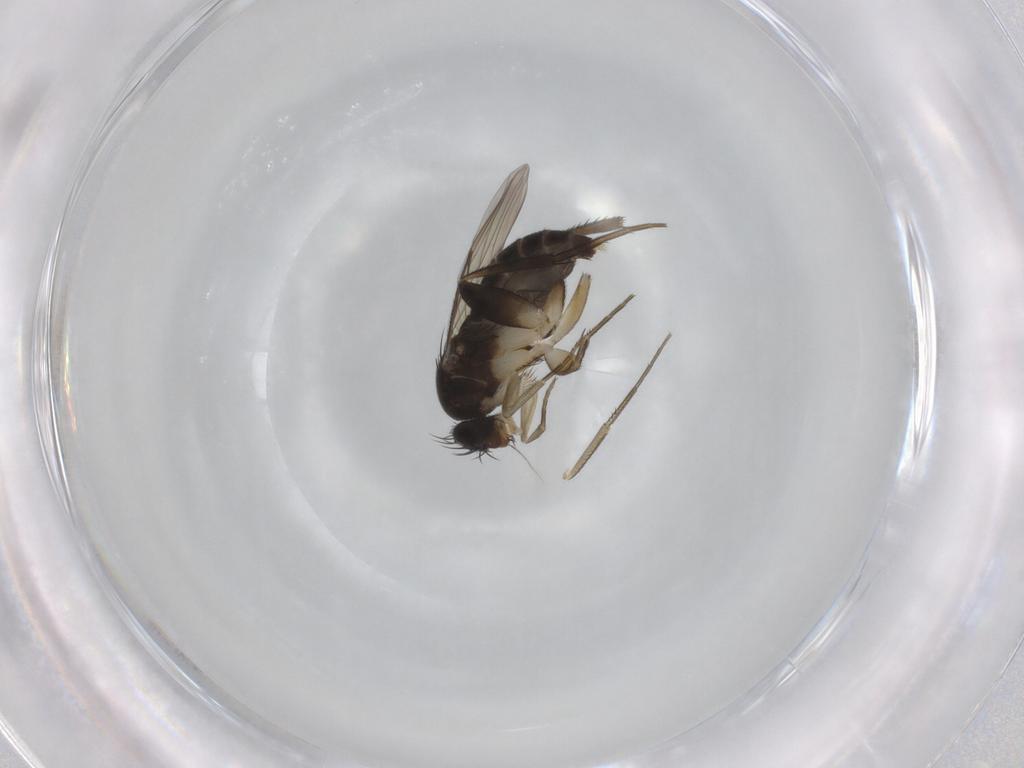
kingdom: Animalia
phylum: Arthropoda
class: Insecta
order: Diptera
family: Phoridae
